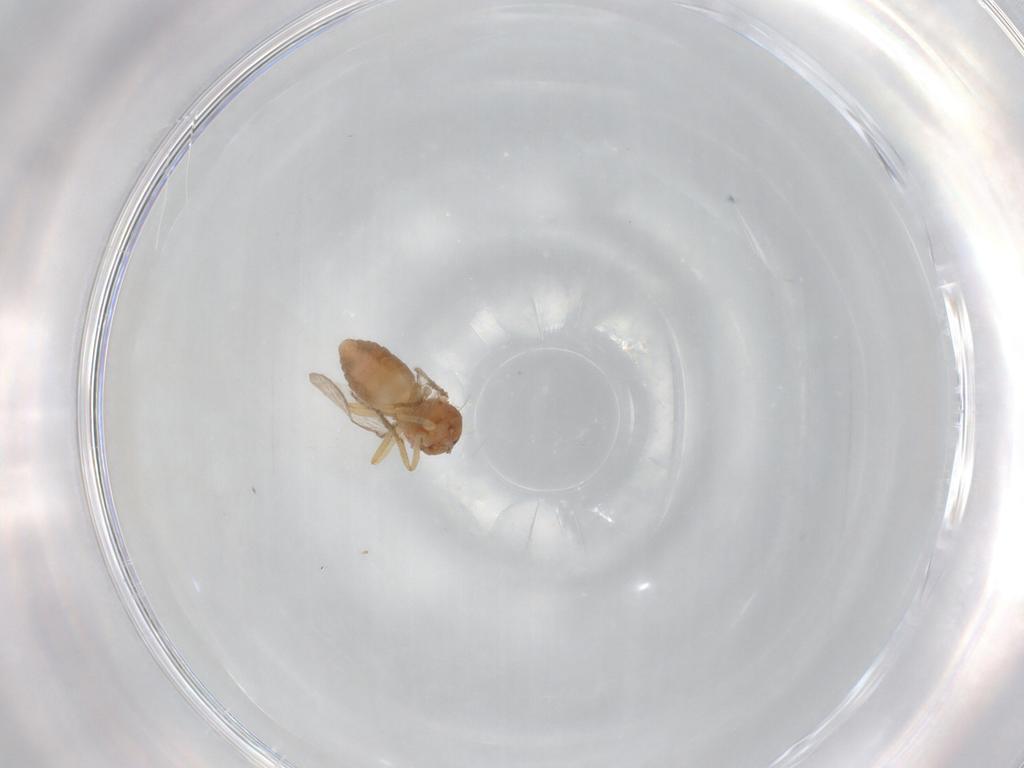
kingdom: Animalia
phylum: Arthropoda
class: Insecta
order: Diptera
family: Ceratopogonidae
